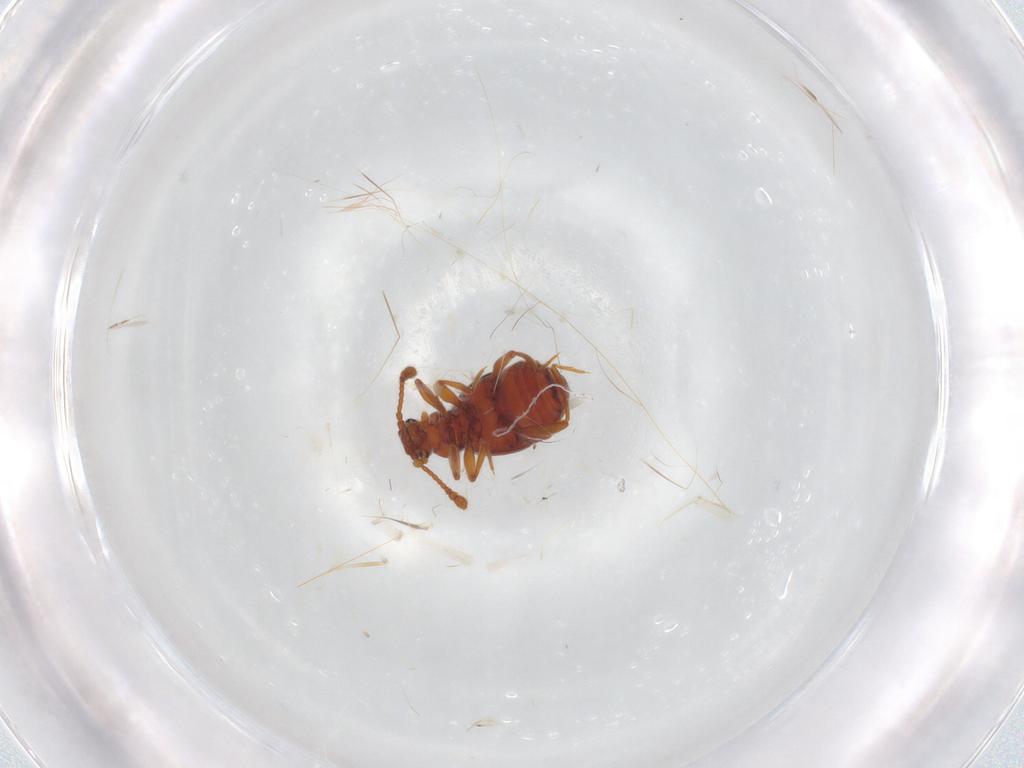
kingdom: Animalia
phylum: Arthropoda
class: Insecta
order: Coleoptera
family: Staphylinidae
